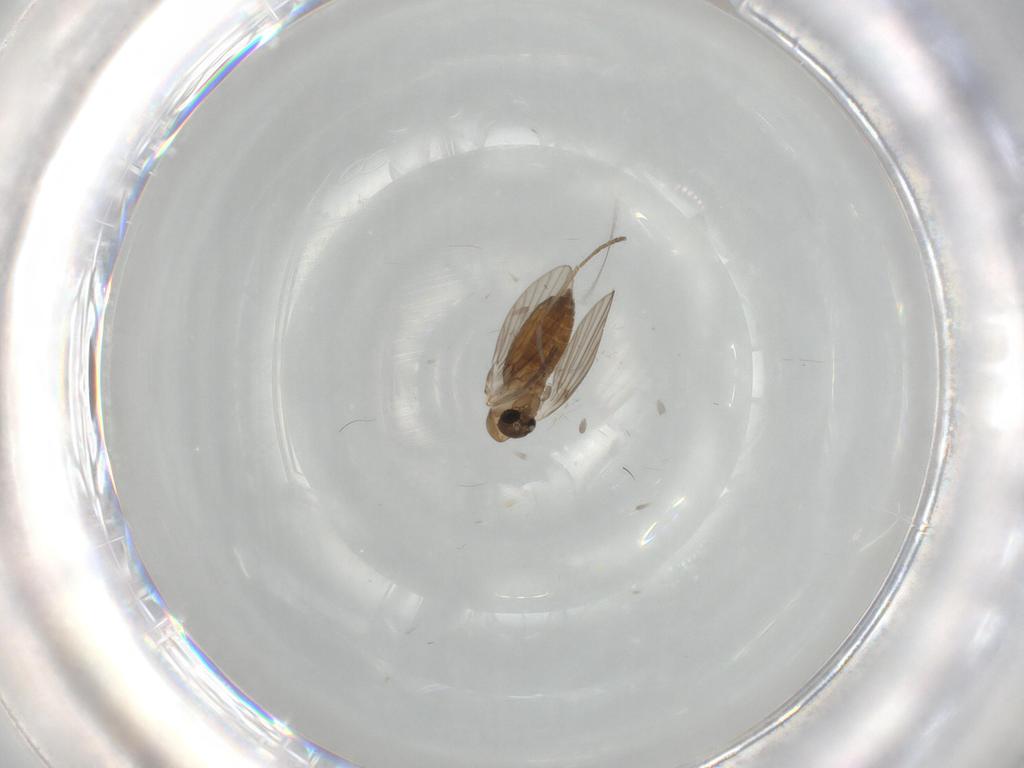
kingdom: Animalia
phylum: Arthropoda
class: Insecta
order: Diptera
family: Psychodidae
